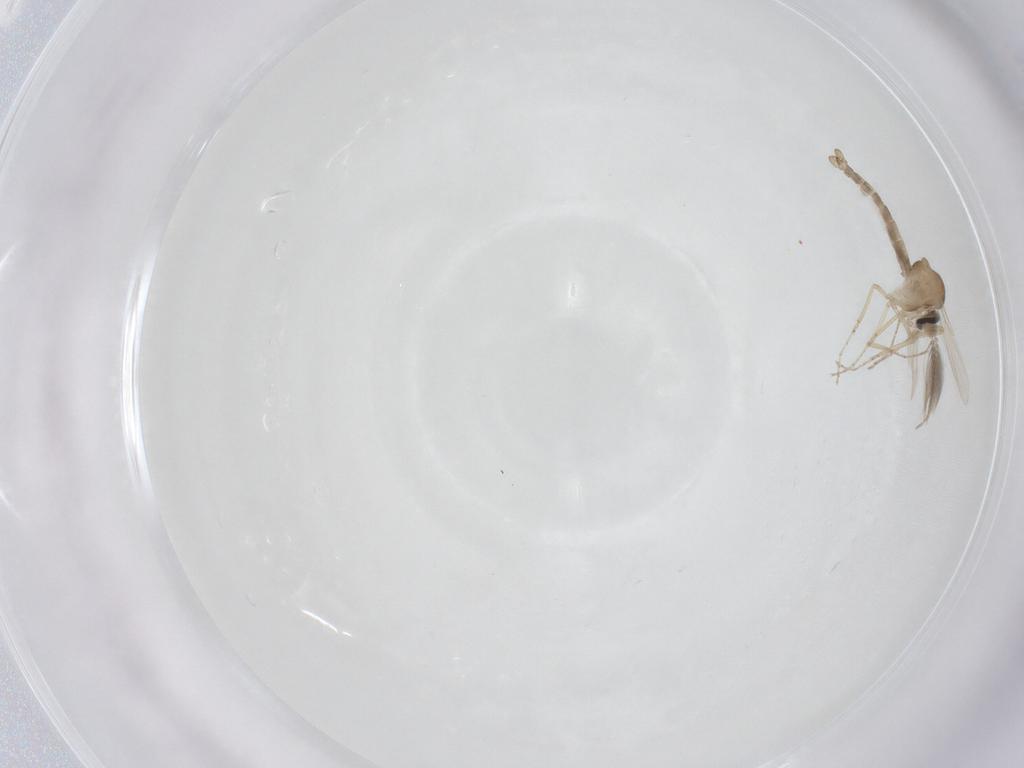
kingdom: Animalia
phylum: Arthropoda
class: Insecta
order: Diptera
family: Ceratopogonidae
